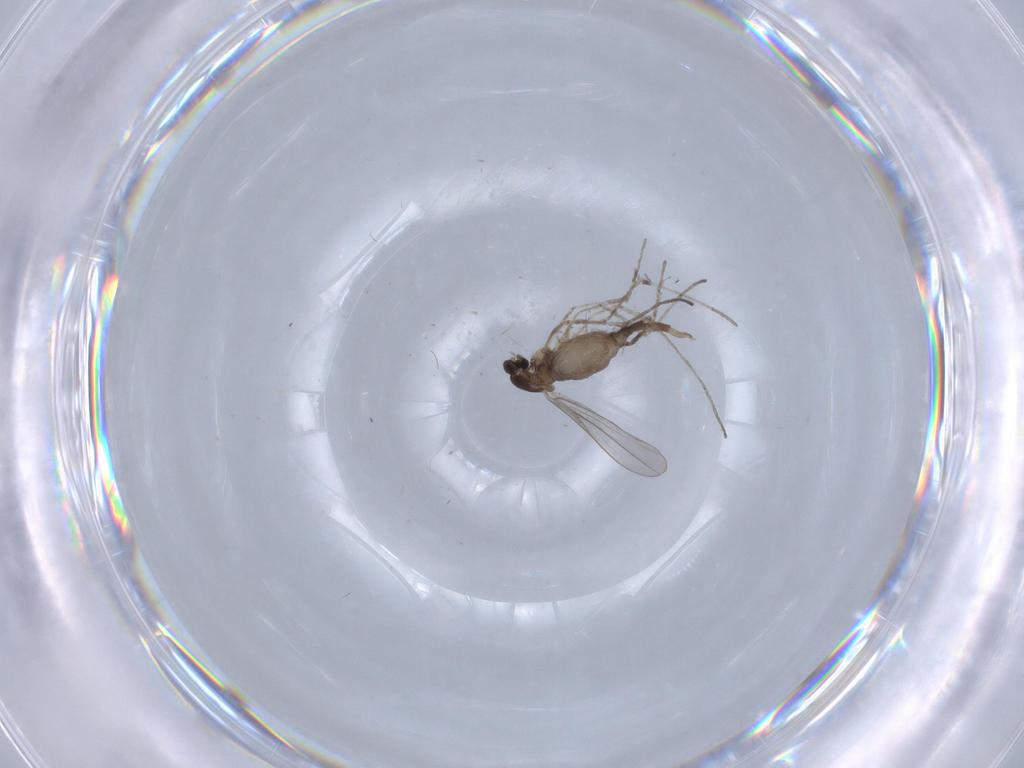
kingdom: Animalia
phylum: Arthropoda
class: Insecta
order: Diptera
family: Cecidomyiidae
